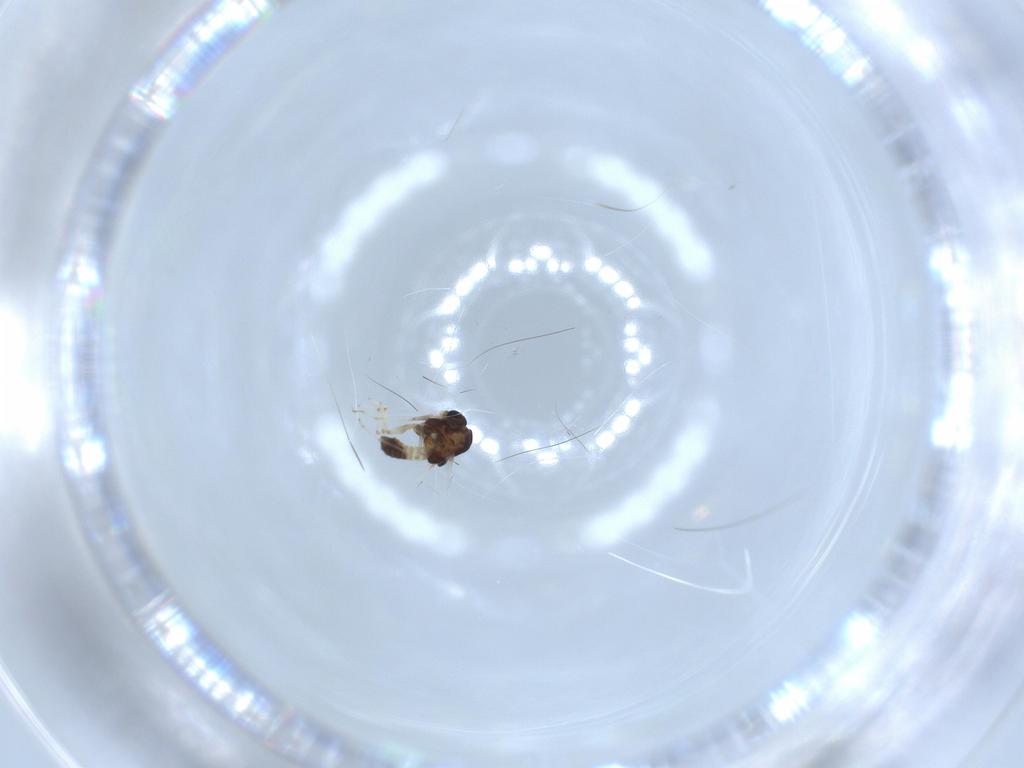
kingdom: Animalia
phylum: Arthropoda
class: Insecta
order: Diptera
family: Chironomidae
